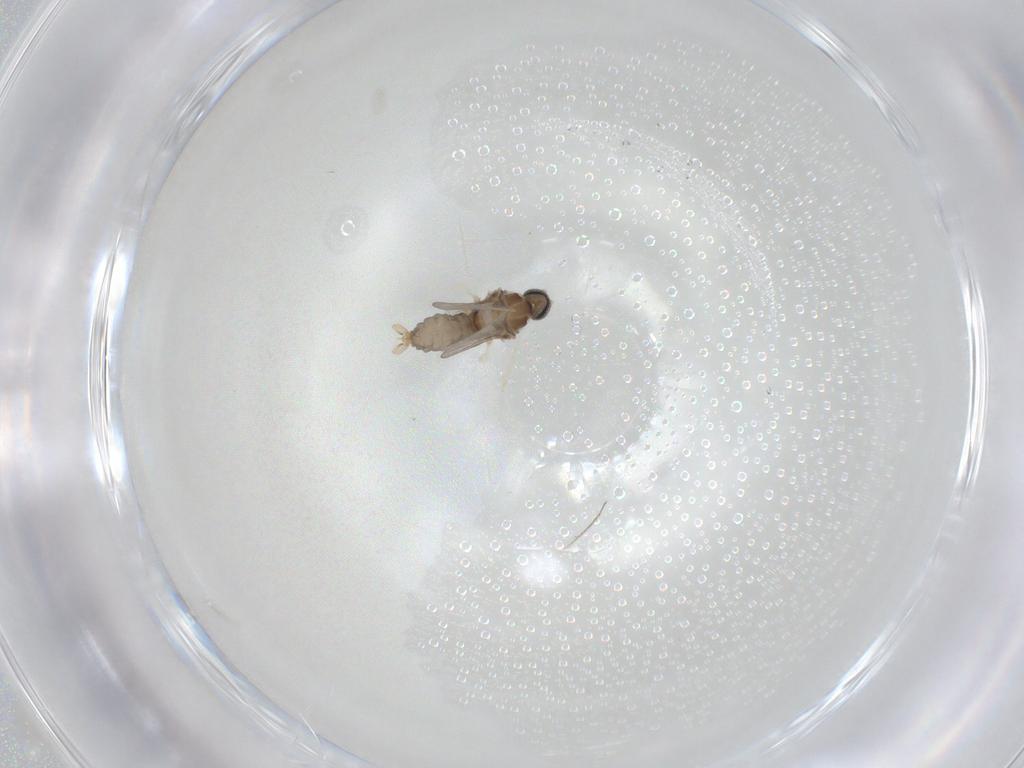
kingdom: Animalia
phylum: Arthropoda
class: Insecta
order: Diptera
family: Cecidomyiidae
